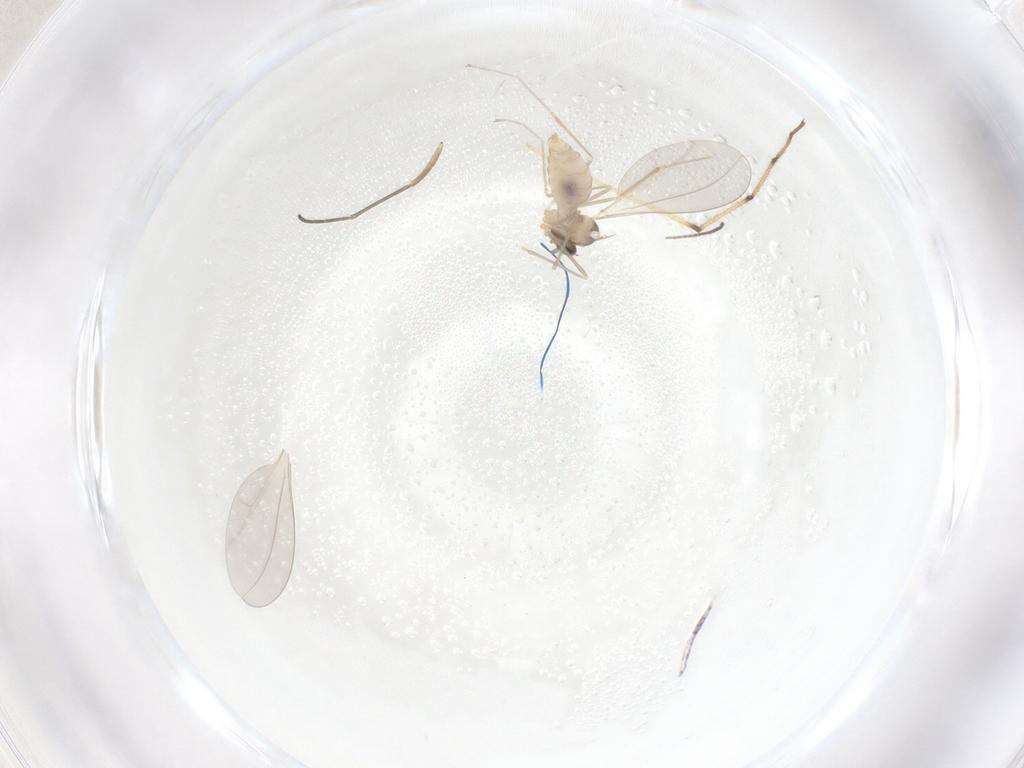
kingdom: Animalia
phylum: Arthropoda
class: Insecta
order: Diptera
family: Cecidomyiidae
